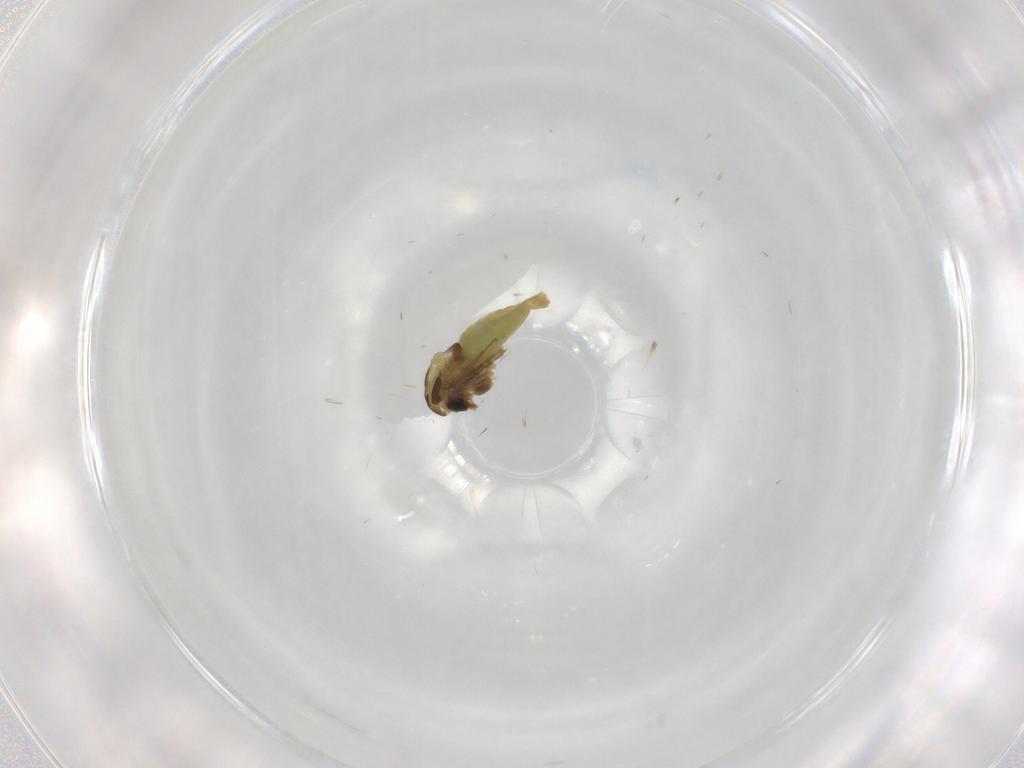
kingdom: Animalia
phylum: Arthropoda
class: Insecta
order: Diptera
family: Chironomidae
